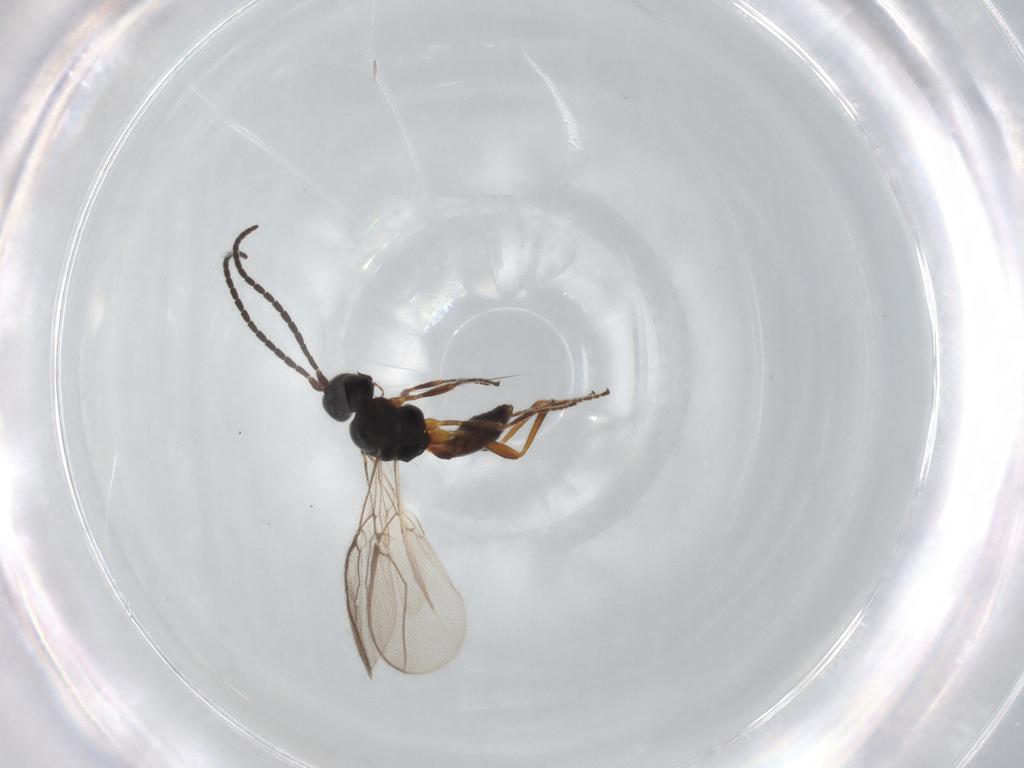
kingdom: Animalia
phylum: Arthropoda
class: Insecta
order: Hymenoptera
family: Braconidae
